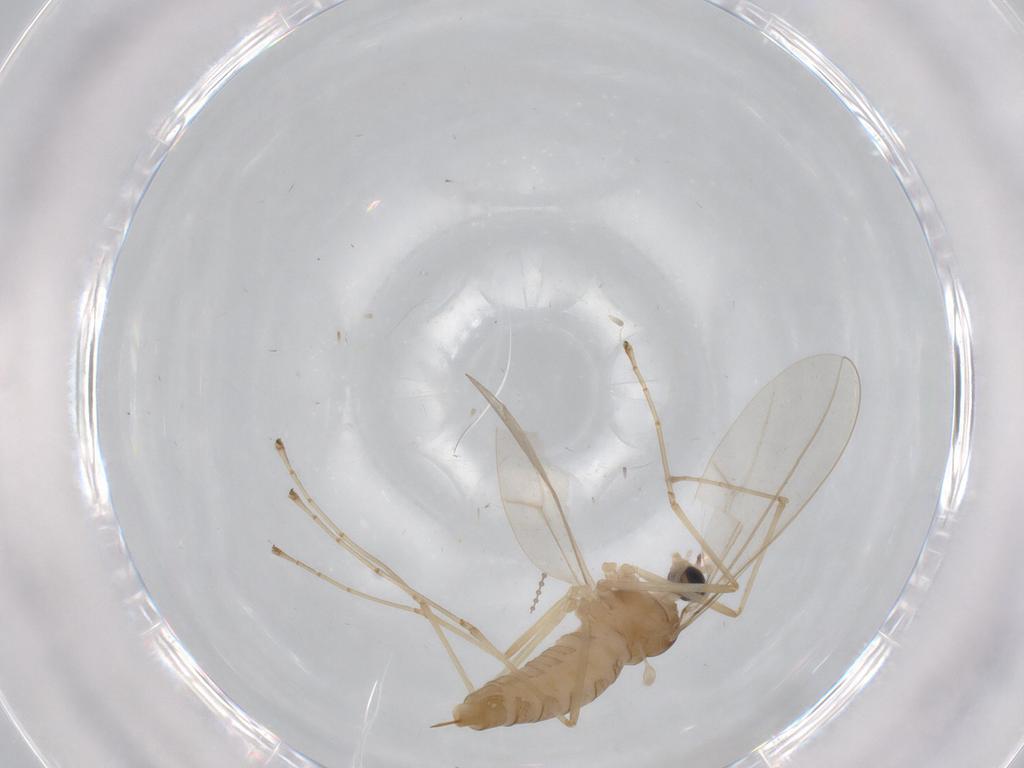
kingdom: Animalia
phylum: Arthropoda
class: Insecta
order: Diptera
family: Cecidomyiidae
